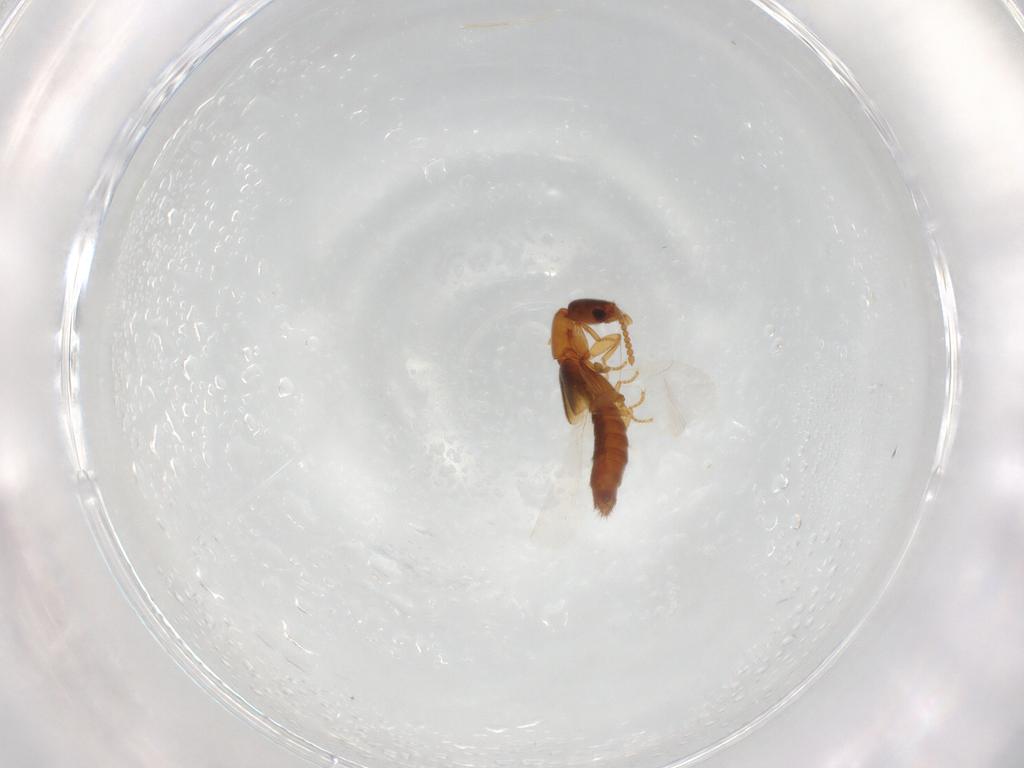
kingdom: Animalia
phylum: Arthropoda
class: Insecta
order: Coleoptera
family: Staphylinidae
